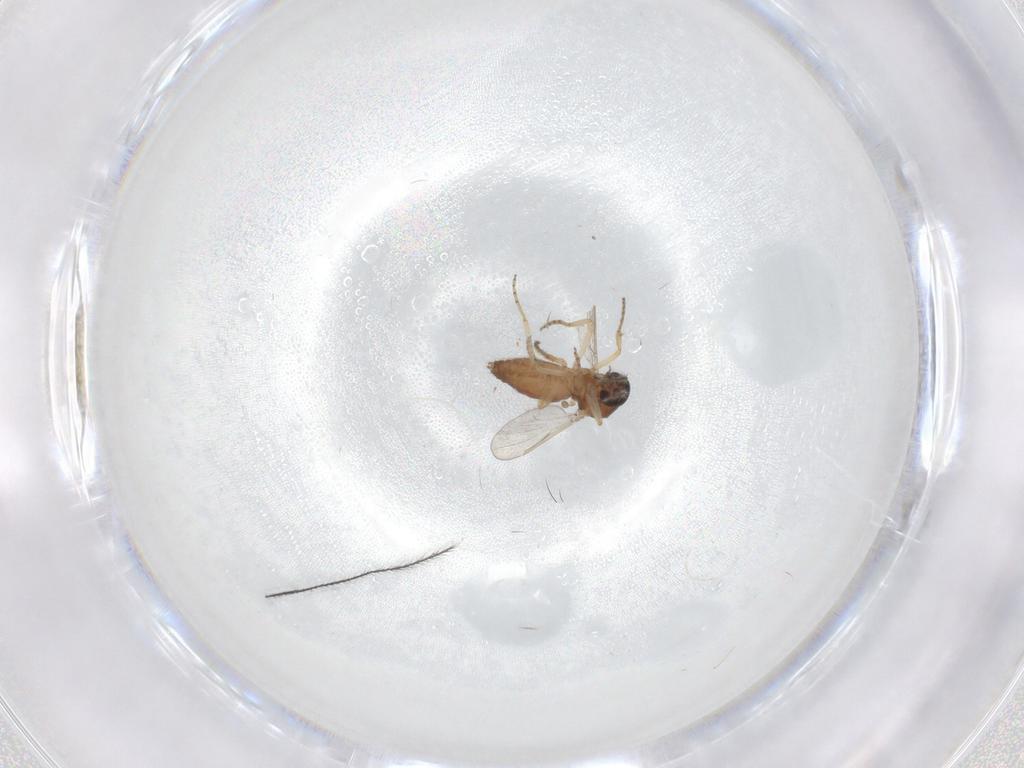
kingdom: Animalia
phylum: Arthropoda
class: Insecta
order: Diptera
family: Ceratopogonidae
